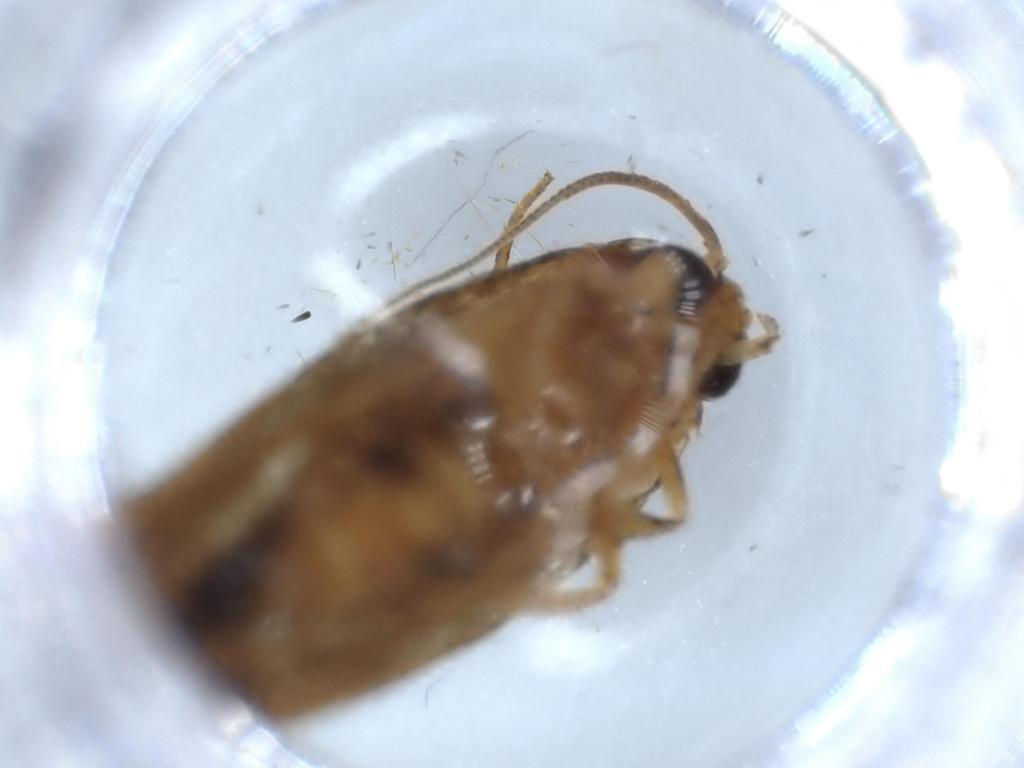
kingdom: Animalia
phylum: Arthropoda
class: Insecta
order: Lepidoptera
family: Blastobasidae
